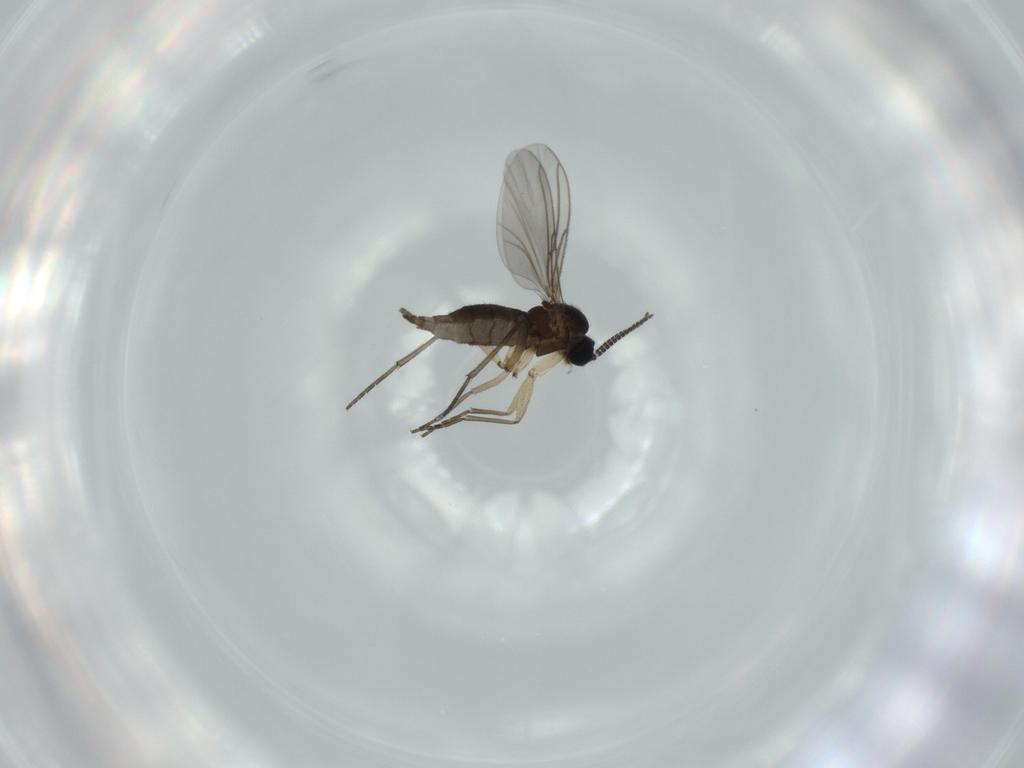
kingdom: Animalia
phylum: Arthropoda
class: Insecta
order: Diptera
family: Sciaridae
